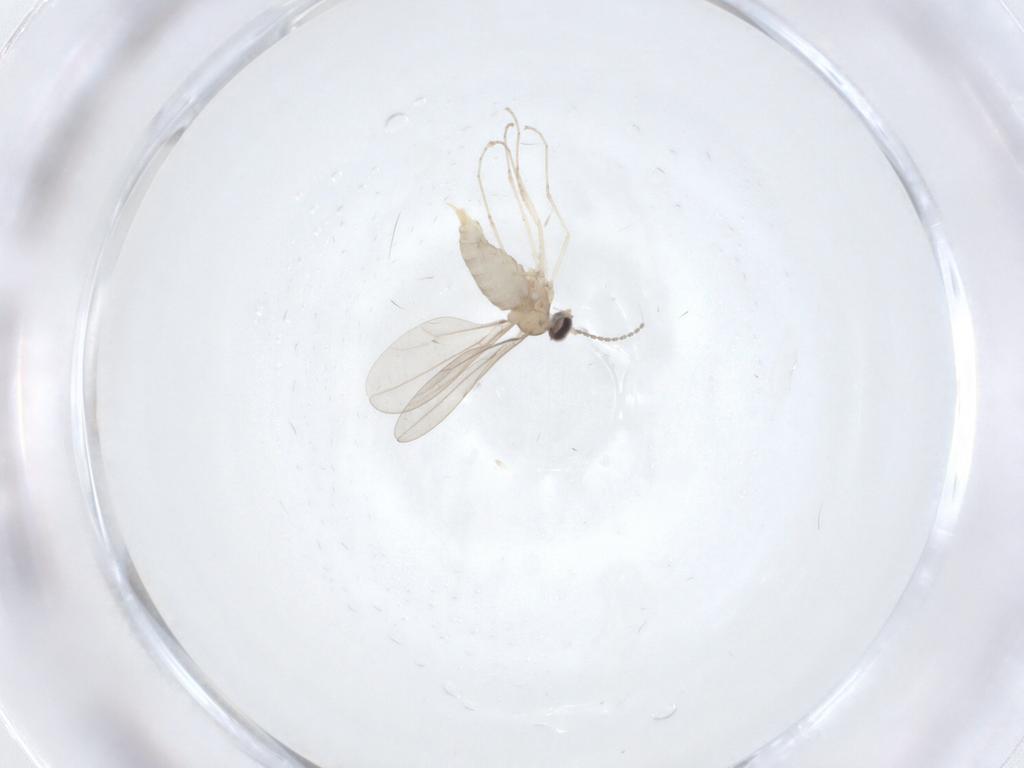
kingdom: Animalia
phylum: Arthropoda
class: Insecta
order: Diptera
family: Cecidomyiidae
